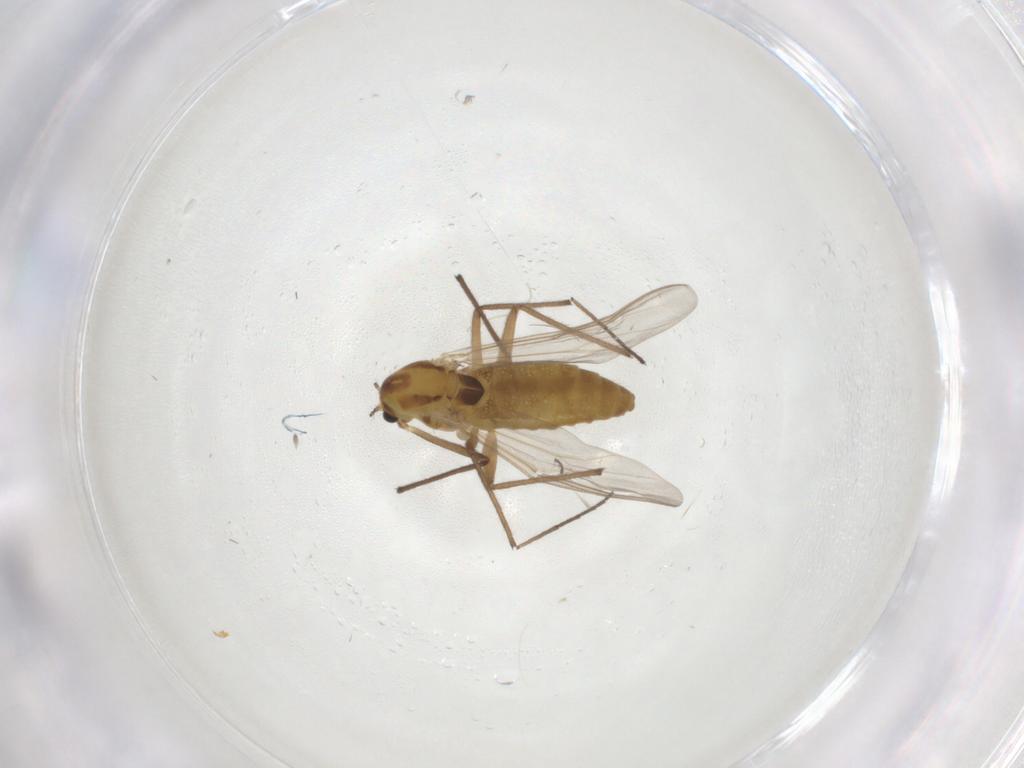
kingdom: Animalia
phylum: Arthropoda
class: Insecta
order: Diptera
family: Chironomidae
